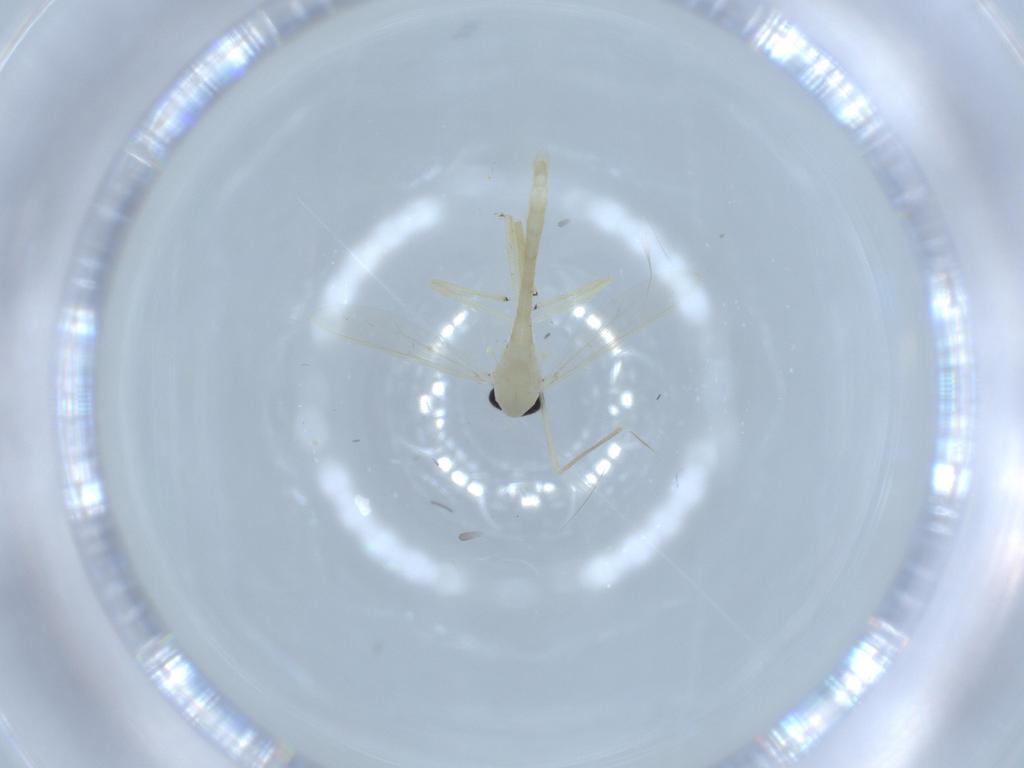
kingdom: Animalia
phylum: Arthropoda
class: Insecta
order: Diptera
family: Chironomidae
